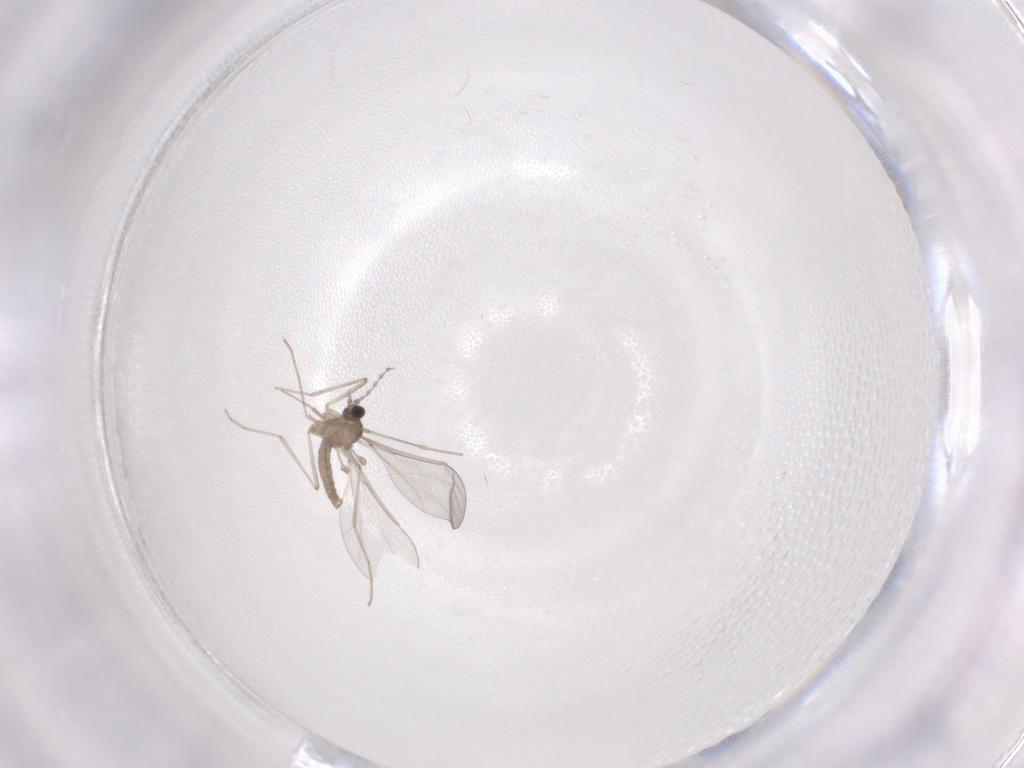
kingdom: Animalia
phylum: Arthropoda
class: Insecta
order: Diptera
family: Cecidomyiidae
